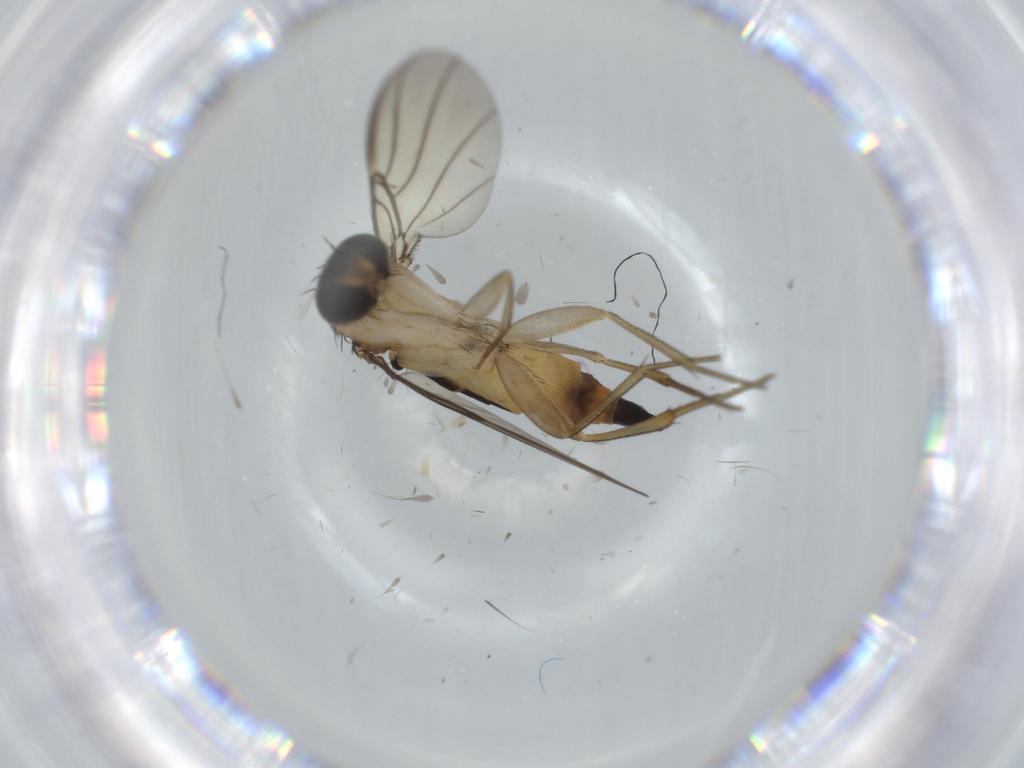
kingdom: Animalia
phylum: Arthropoda
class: Insecta
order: Diptera
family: Phoridae
